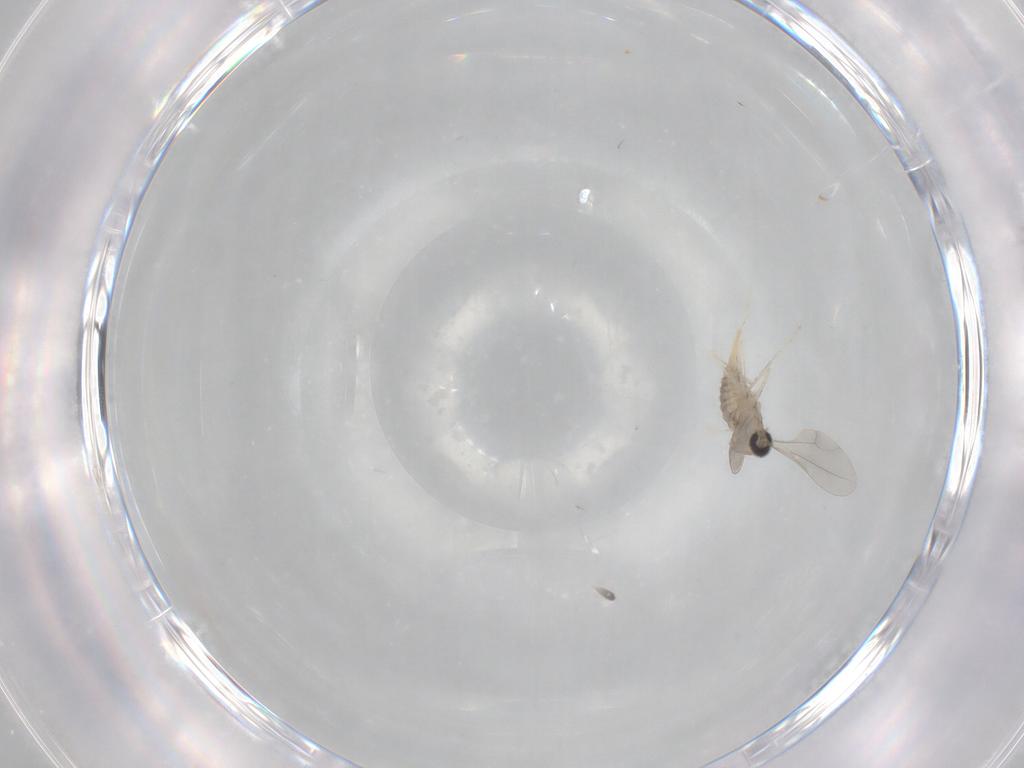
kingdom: Animalia
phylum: Arthropoda
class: Insecta
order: Diptera
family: Cecidomyiidae
